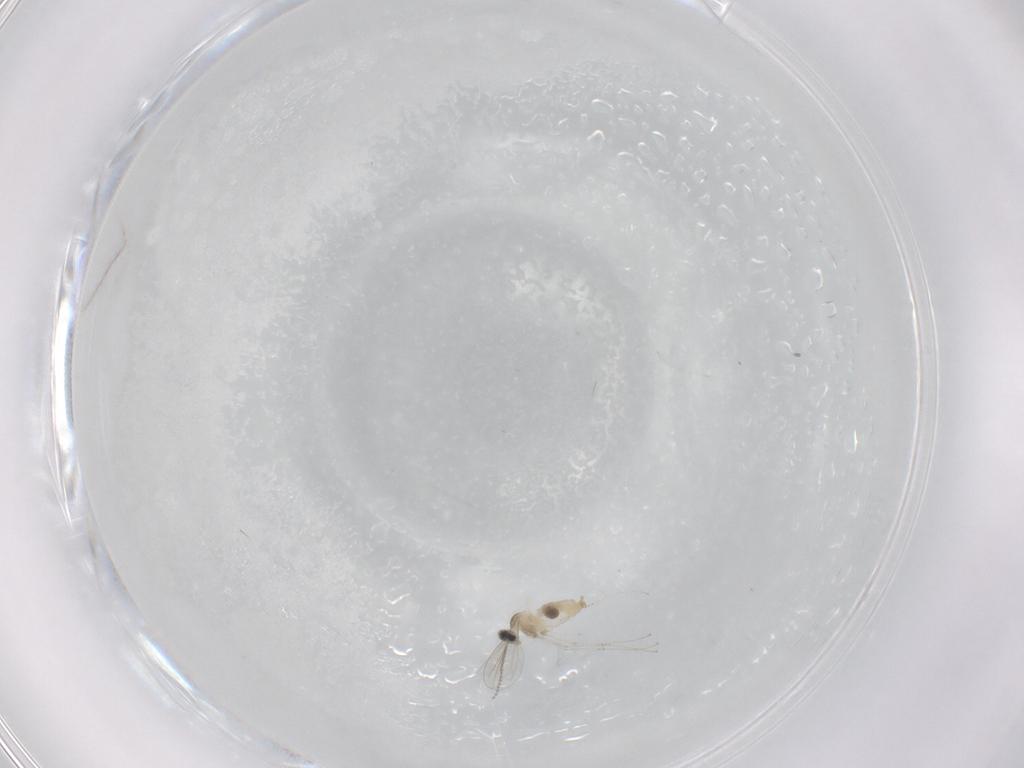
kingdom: Animalia
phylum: Arthropoda
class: Insecta
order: Diptera
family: Cecidomyiidae
